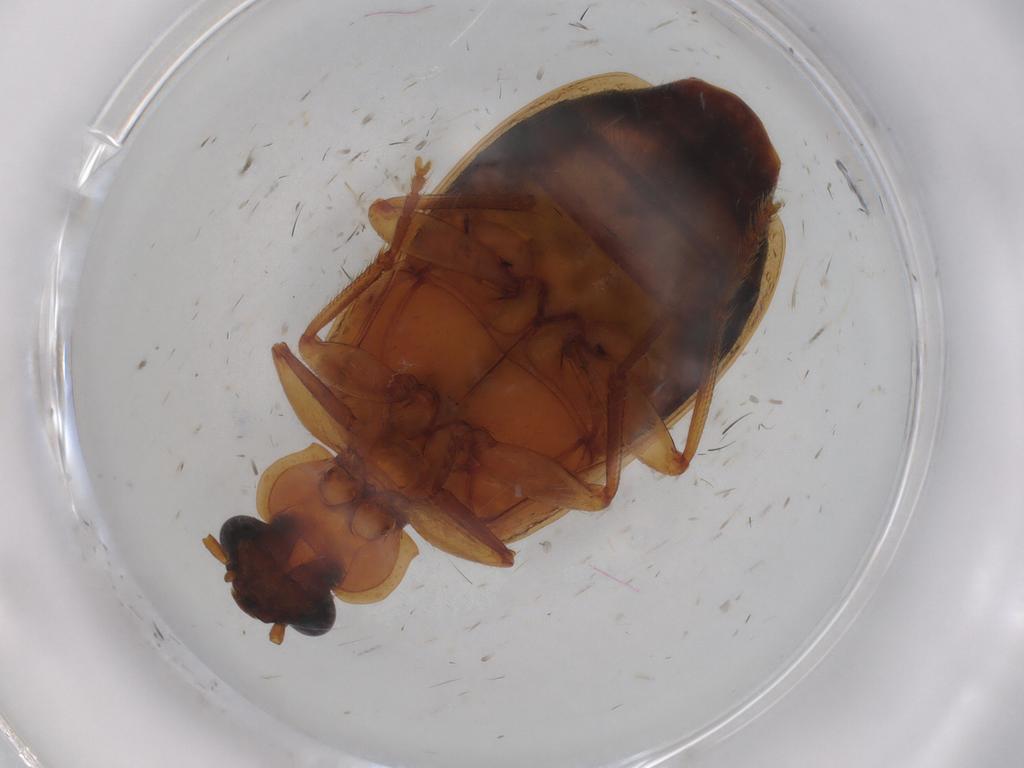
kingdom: Animalia
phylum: Arthropoda
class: Insecta
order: Coleoptera
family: Carabidae
